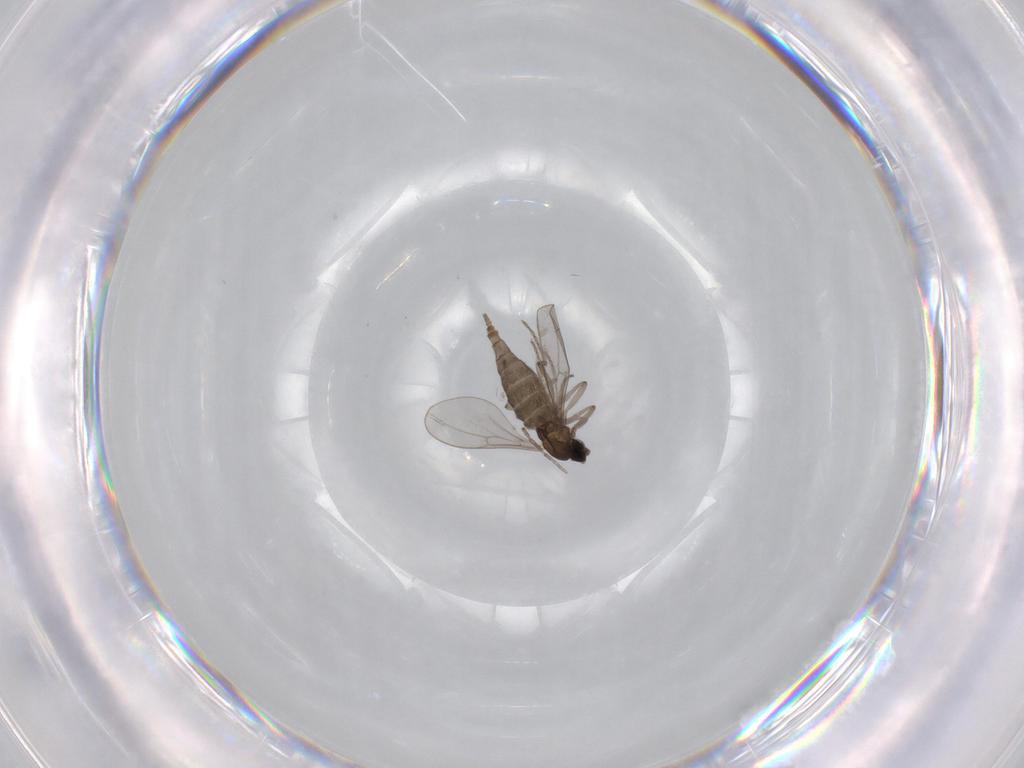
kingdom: Animalia
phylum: Arthropoda
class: Insecta
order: Diptera
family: Cecidomyiidae
